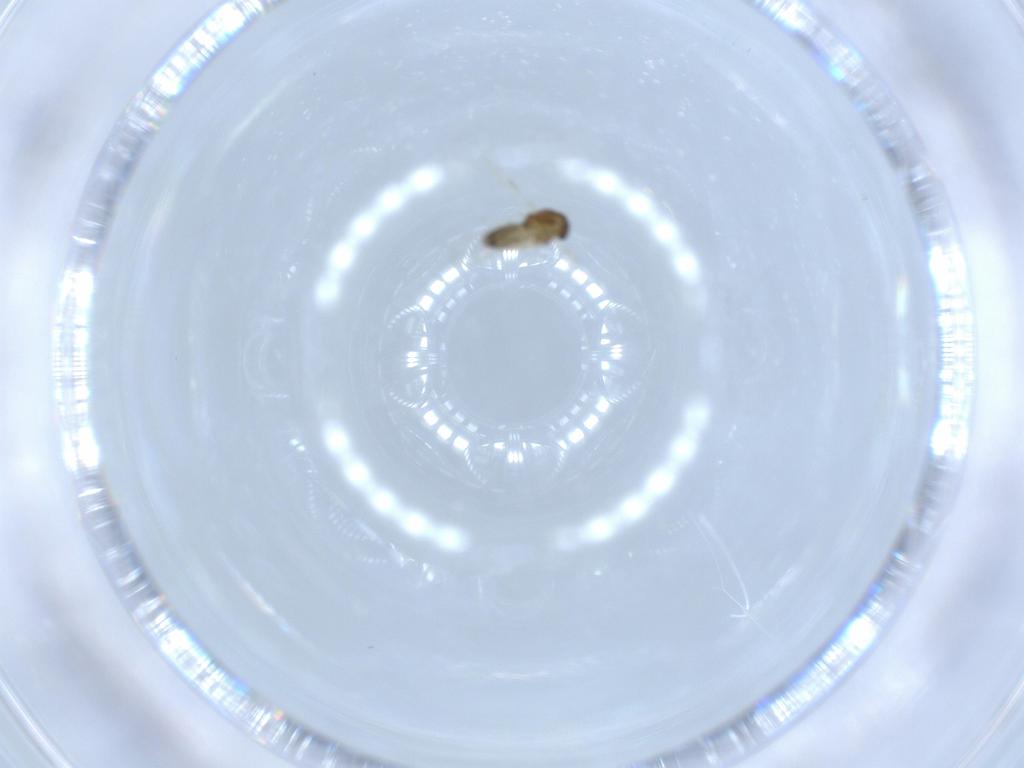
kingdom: Animalia
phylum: Arthropoda
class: Insecta
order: Diptera
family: Chironomidae
